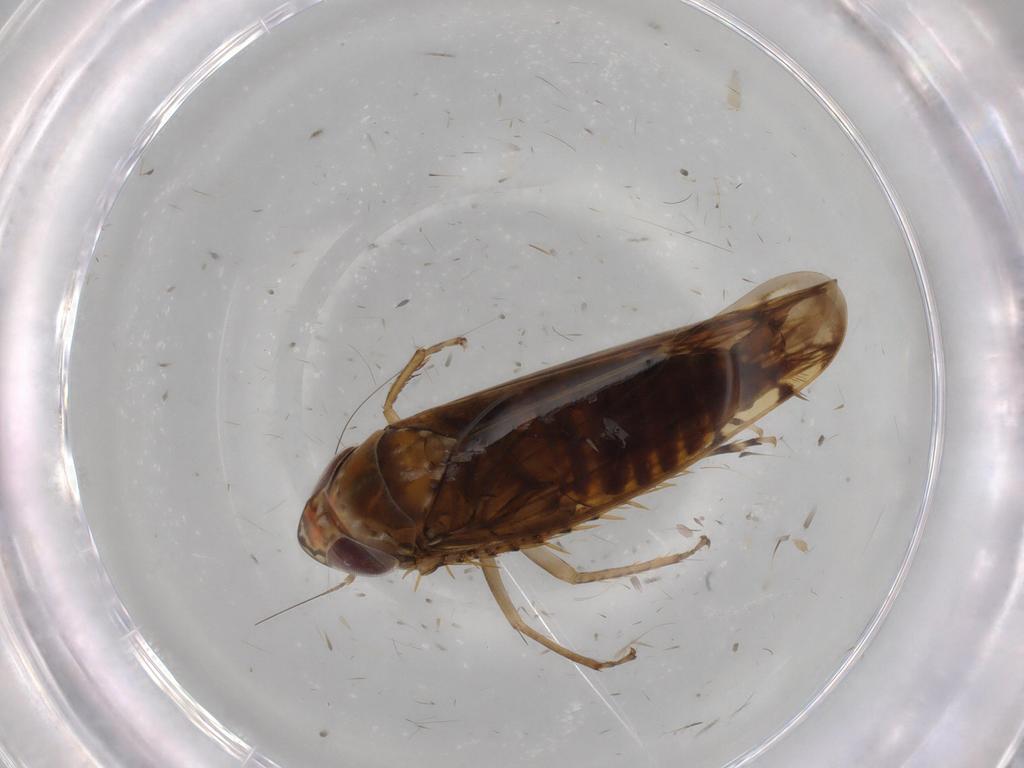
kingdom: Animalia
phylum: Arthropoda
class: Insecta
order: Hemiptera
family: Cicadellidae
